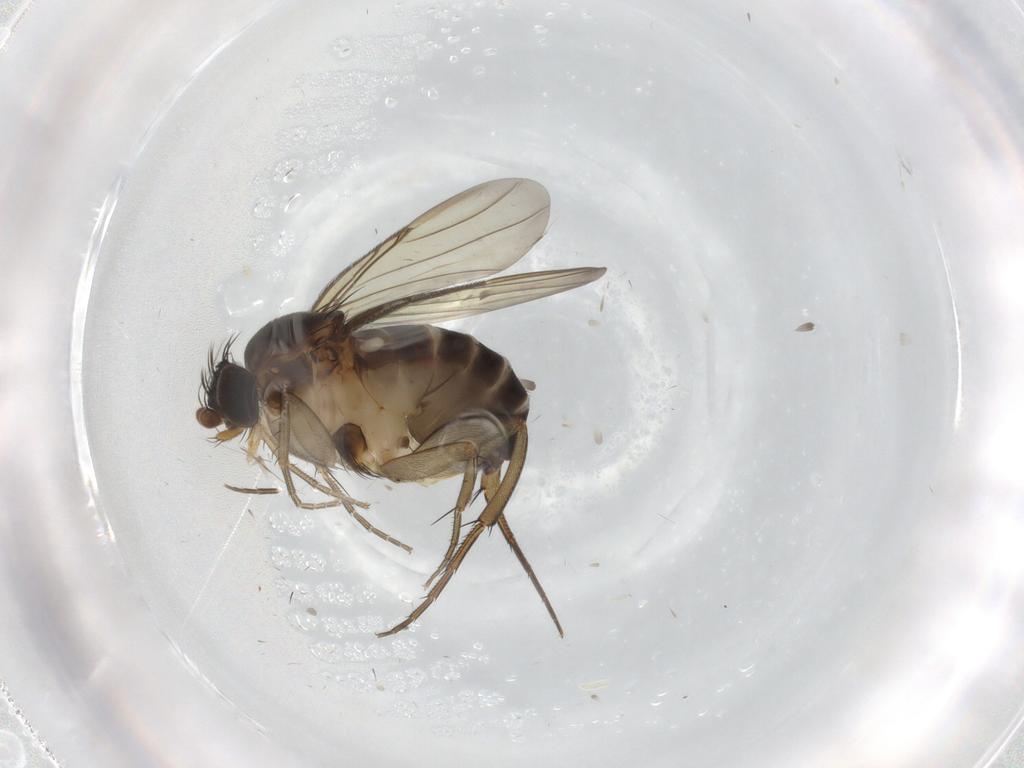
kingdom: Animalia
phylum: Arthropoda
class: Insecta
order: Diptera
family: Phoridae
